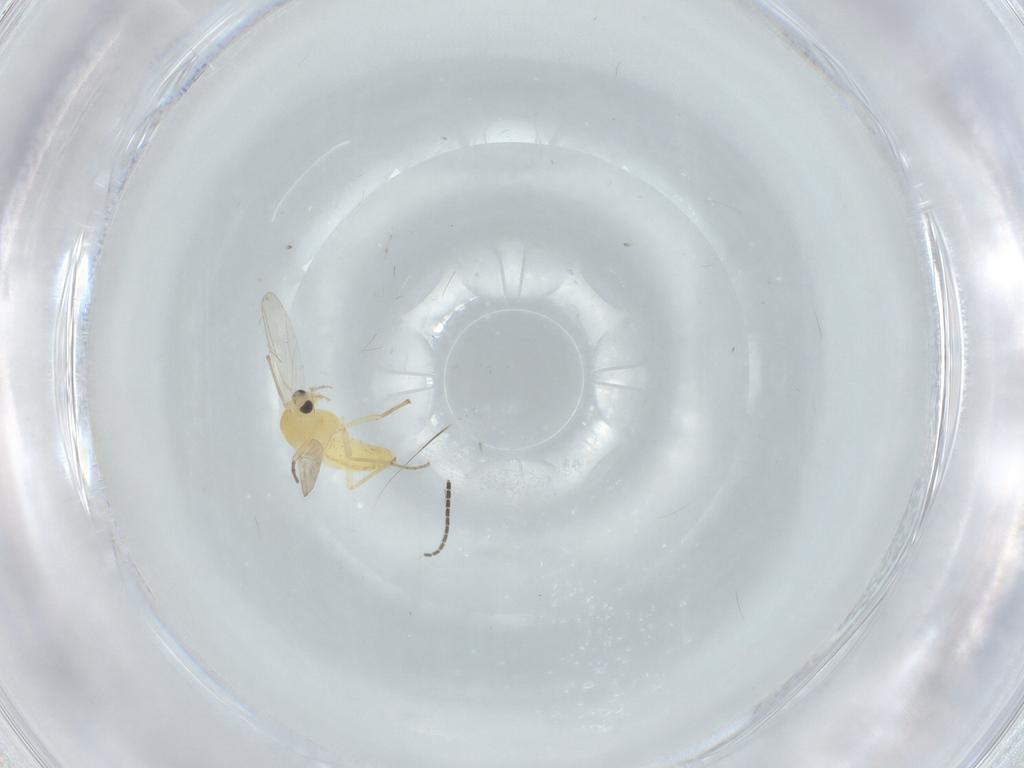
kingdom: Animalia
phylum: Arthropoda
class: Insecta
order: Diptera
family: Chironomidae
